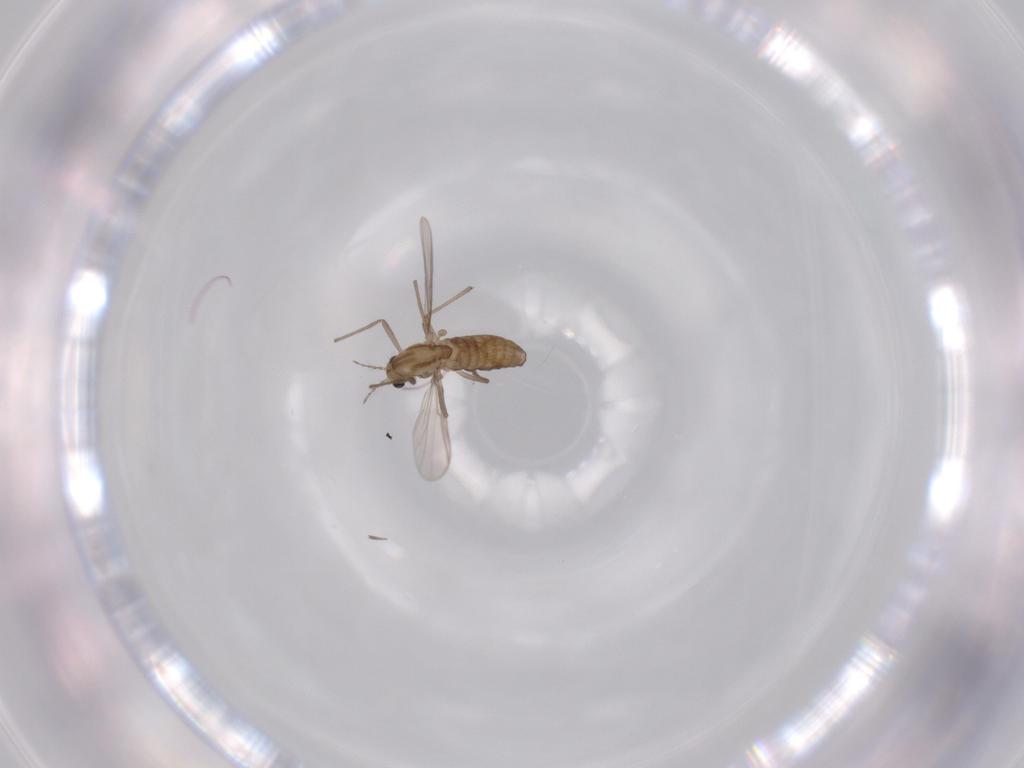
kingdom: Animalia
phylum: Arthropoda
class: Insecta
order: Diptera
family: Chironomidae
